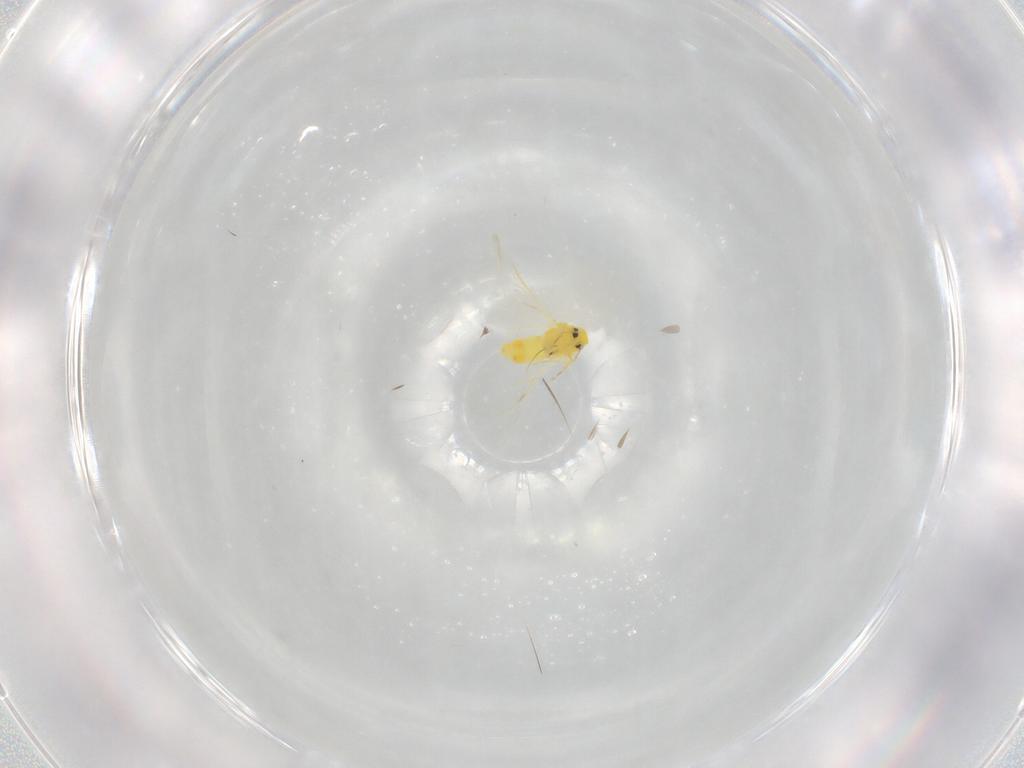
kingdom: Animalia
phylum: Arthropoda
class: Insecta
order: Hemiptera
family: Aleyrodidae
